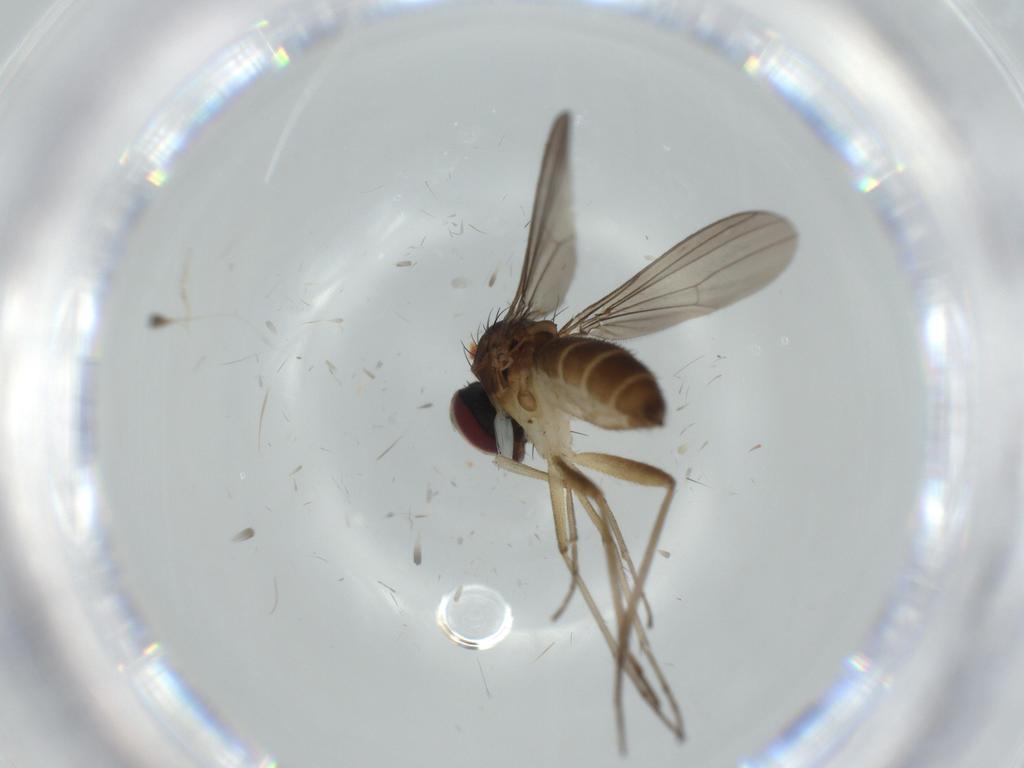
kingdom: Animalia
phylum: Arthropoda
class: Insecta
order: Diptera
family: Dolichopodidae
